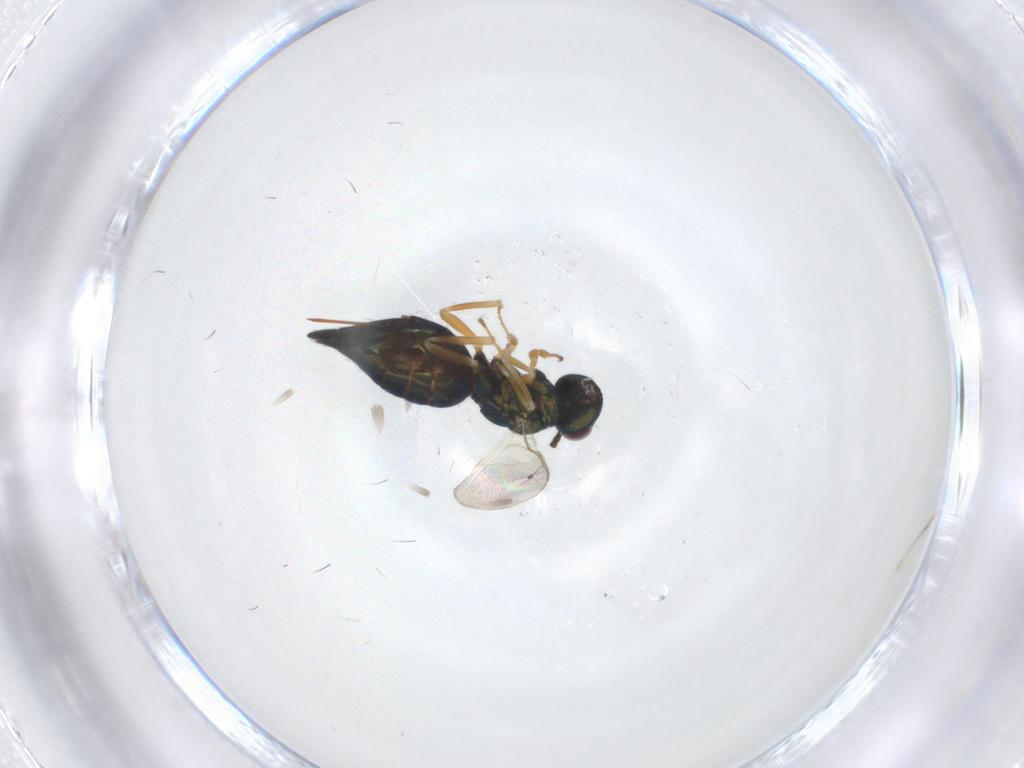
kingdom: Animalia
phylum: Arthropoda
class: Insecta
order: Hymenoptera
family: Pteromalidae
